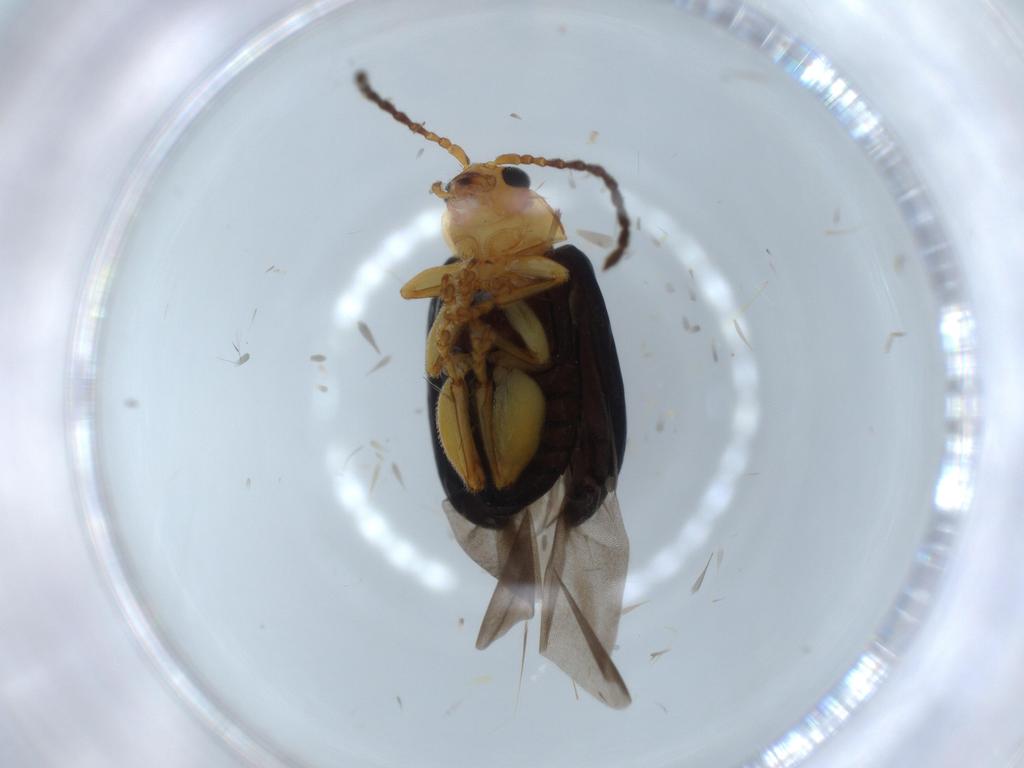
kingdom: Animalia
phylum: Arthropoda
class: Insecta
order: Coleoptera
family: Chrysomelidae
